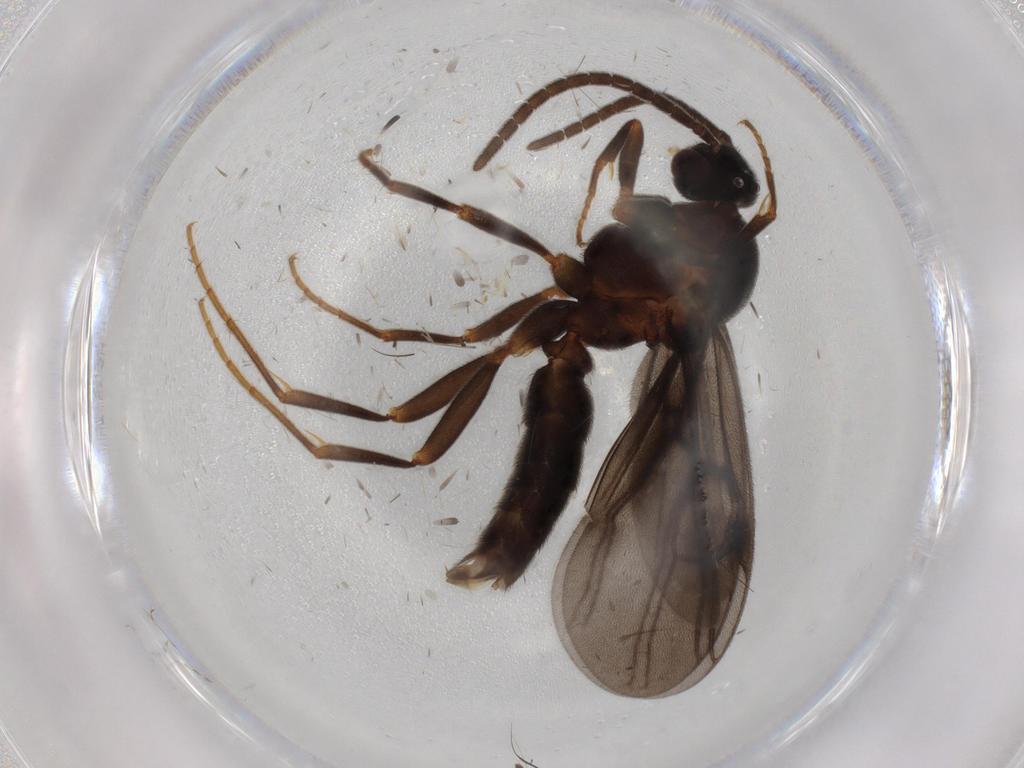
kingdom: Animalia
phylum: Arthropoda
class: Insecta
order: Hymenoptera
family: Formicidae
